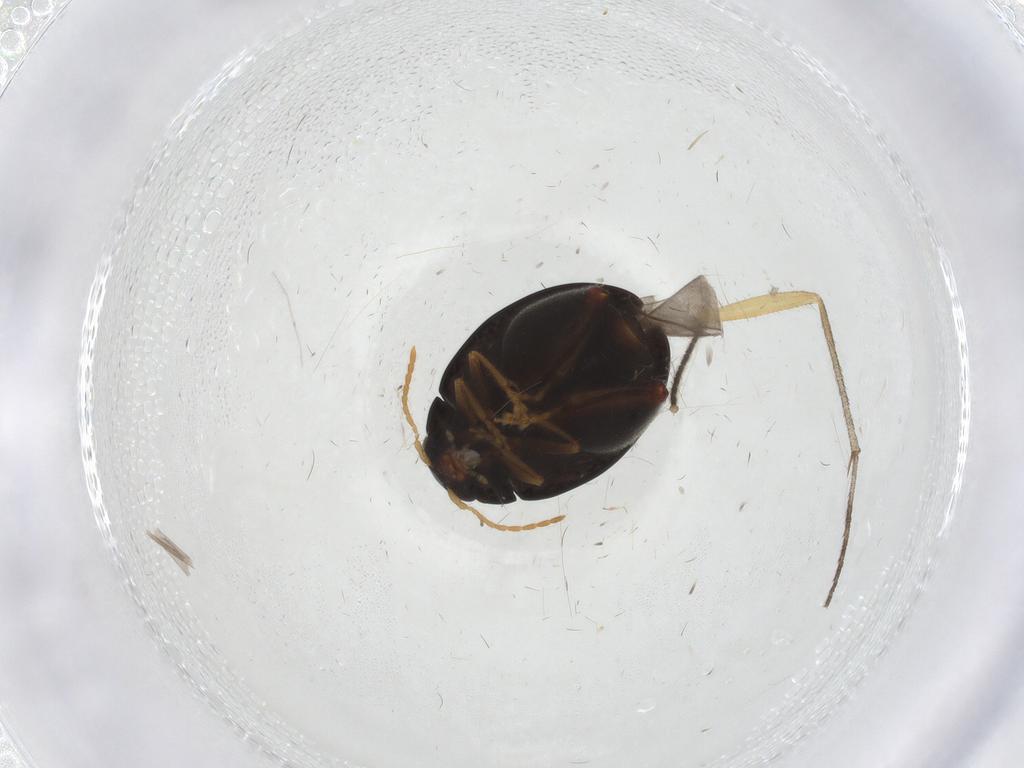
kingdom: Animalia
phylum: Arthropoda
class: Insecta
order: Coleoptera
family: Chrysomelidae
